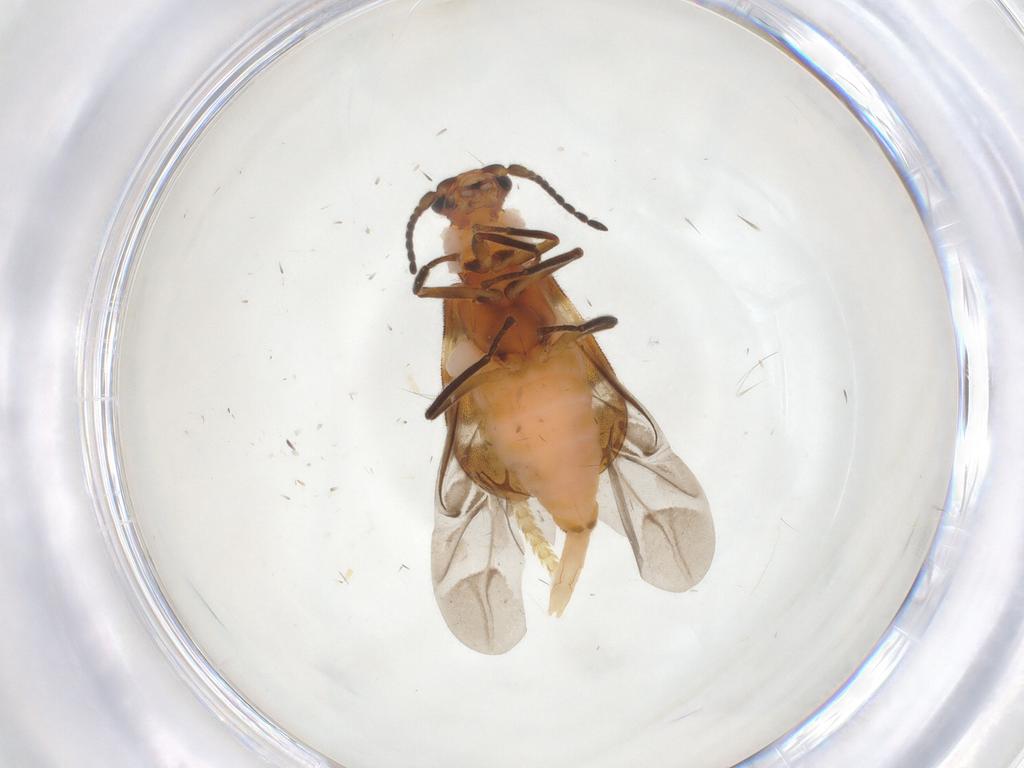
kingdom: Animalia
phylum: Arthropoda
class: Insecta
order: Coleoptera
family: Melyridae
